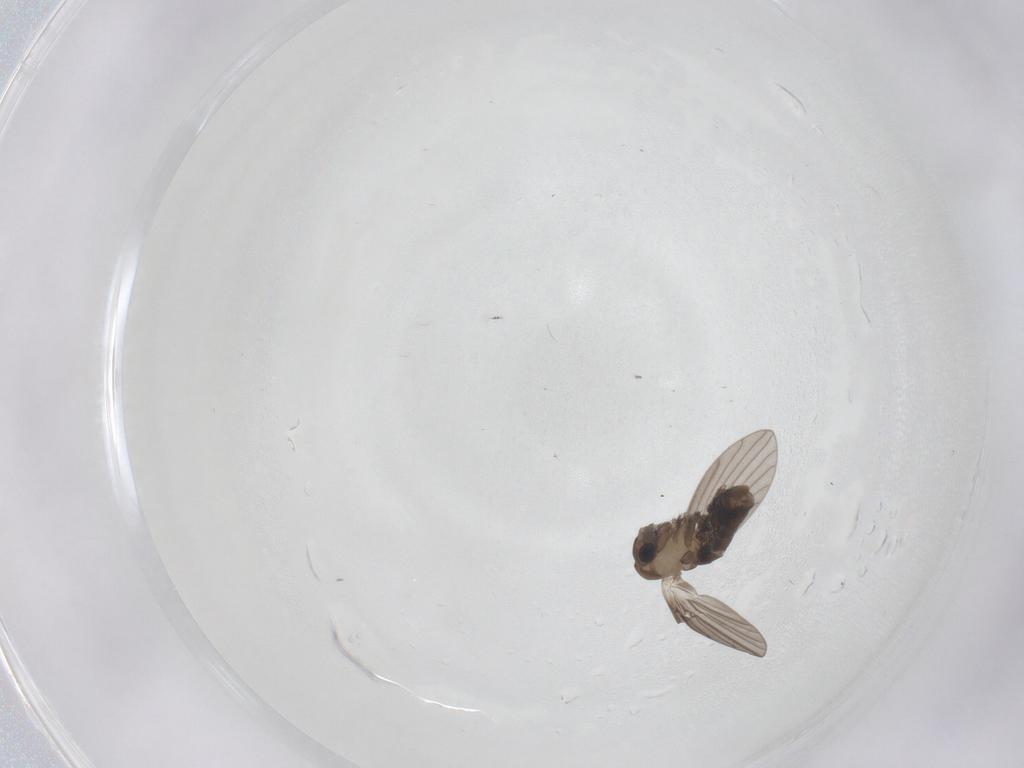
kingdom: Animalia
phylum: Arthropoda
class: Insecta
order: Diptera
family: Psychodidae
